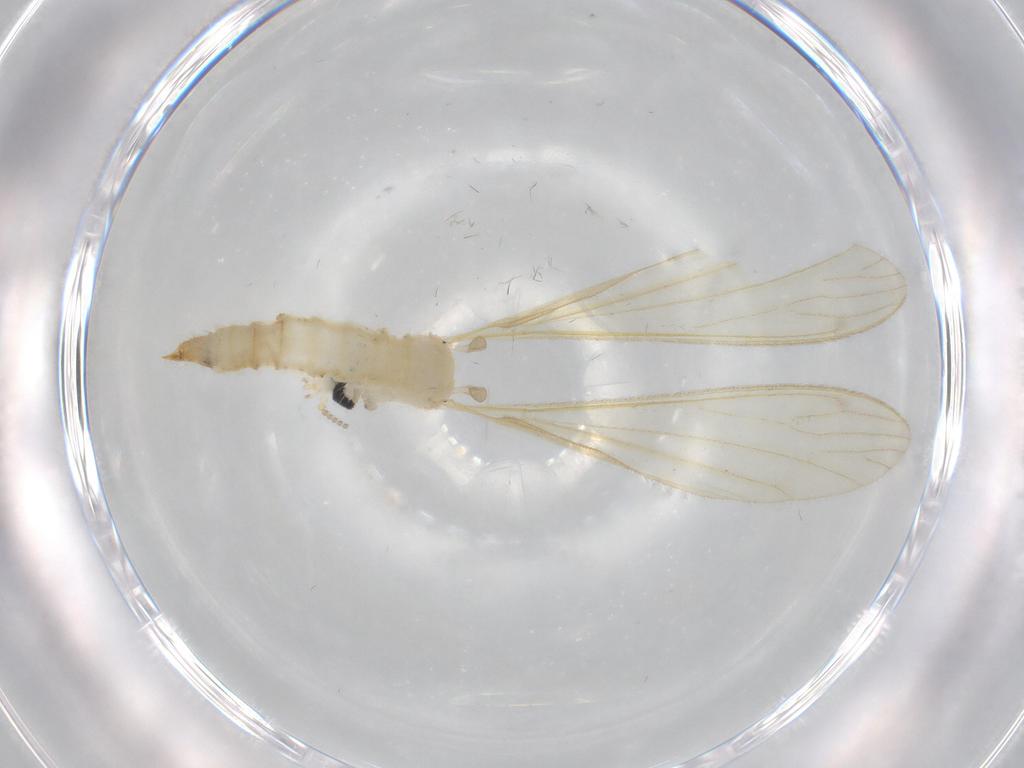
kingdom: Animalia
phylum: Arthropoda
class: Insecta
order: Diptera
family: Limoniidae
